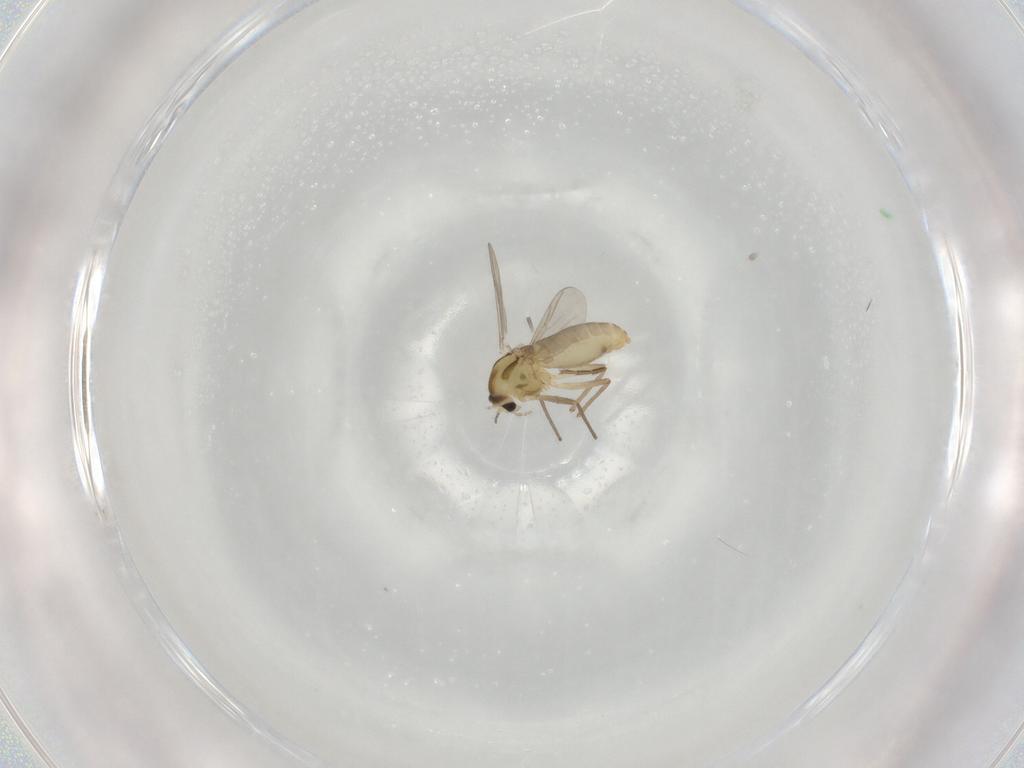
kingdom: Animalia
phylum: Arthropoda
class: Insecta
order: Diptera
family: Chironomidae
